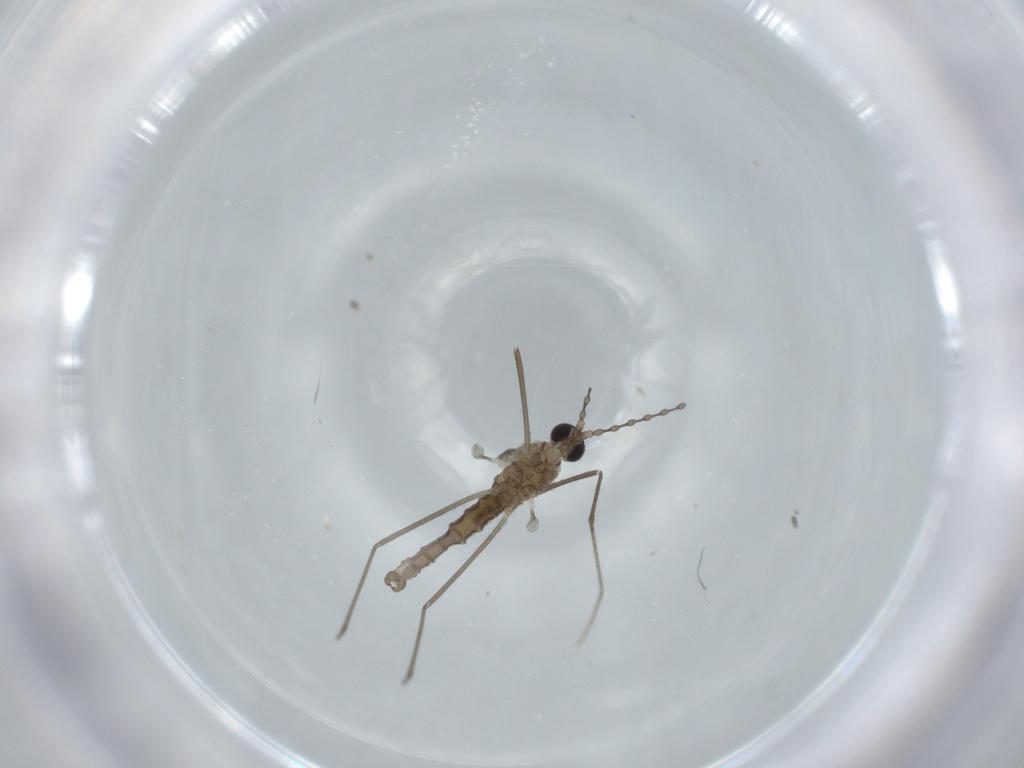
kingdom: Animalia
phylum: Arthropoda
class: Insecta
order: Diptera
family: Cecidomyiidae
